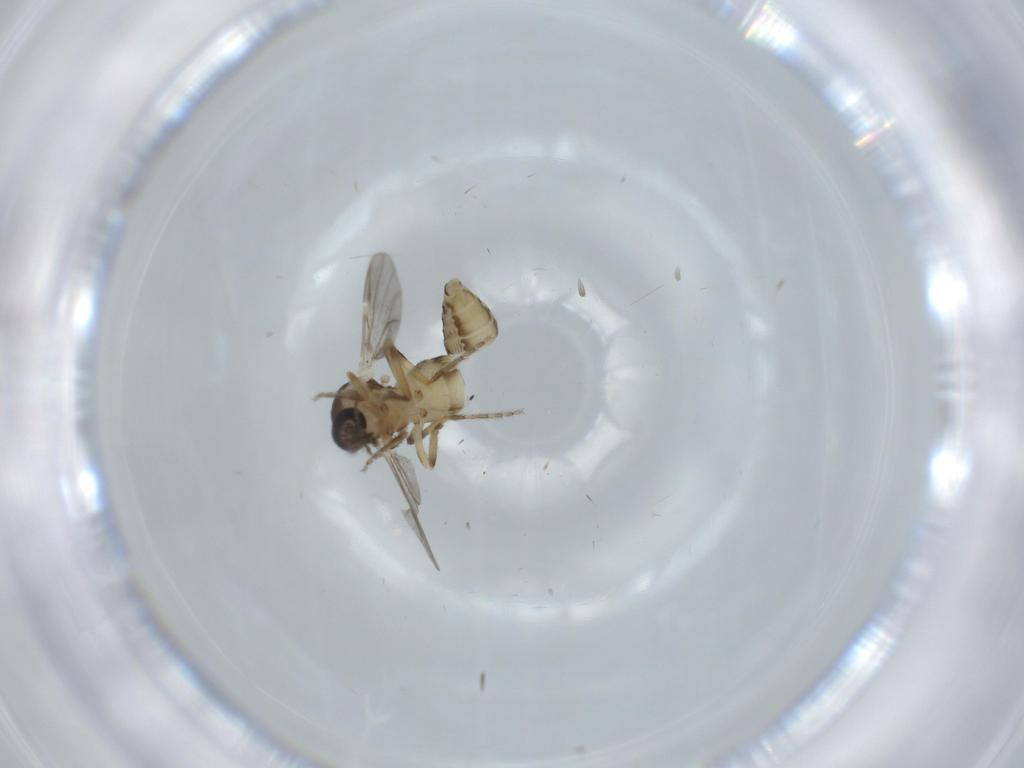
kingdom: Animalia
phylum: Arthropoda
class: Insecta
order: Diptera
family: Ceratopogonidae
